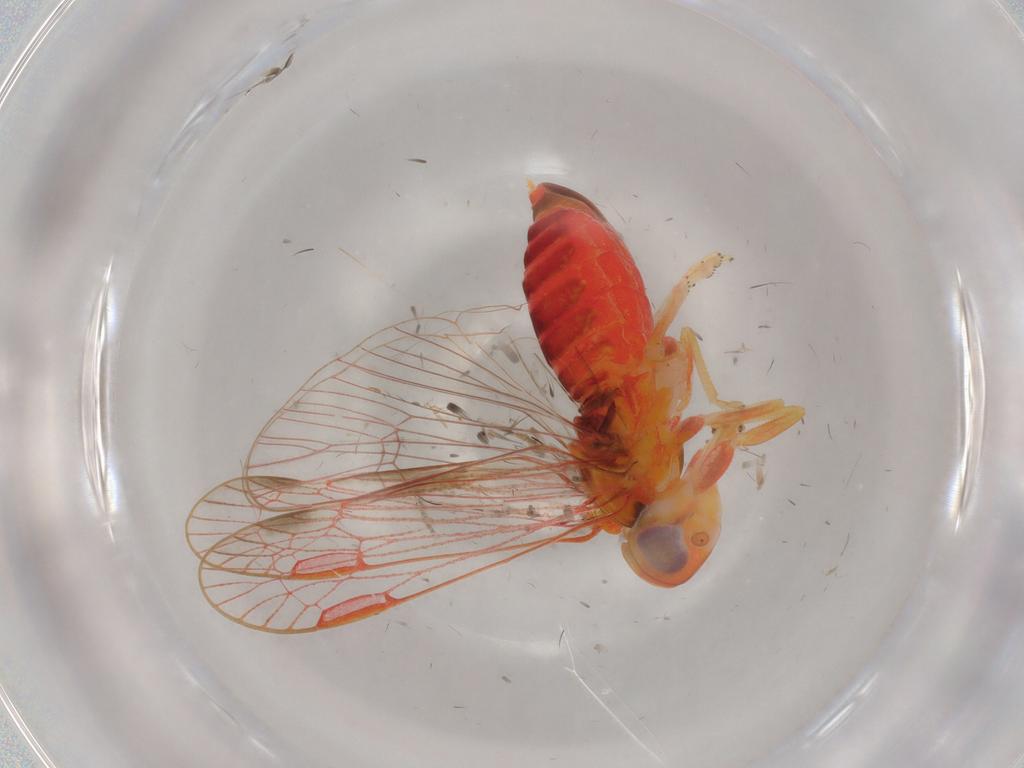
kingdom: Animalia
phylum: Arthropoda
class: Insecta
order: Hemiptera
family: Cixiidae
